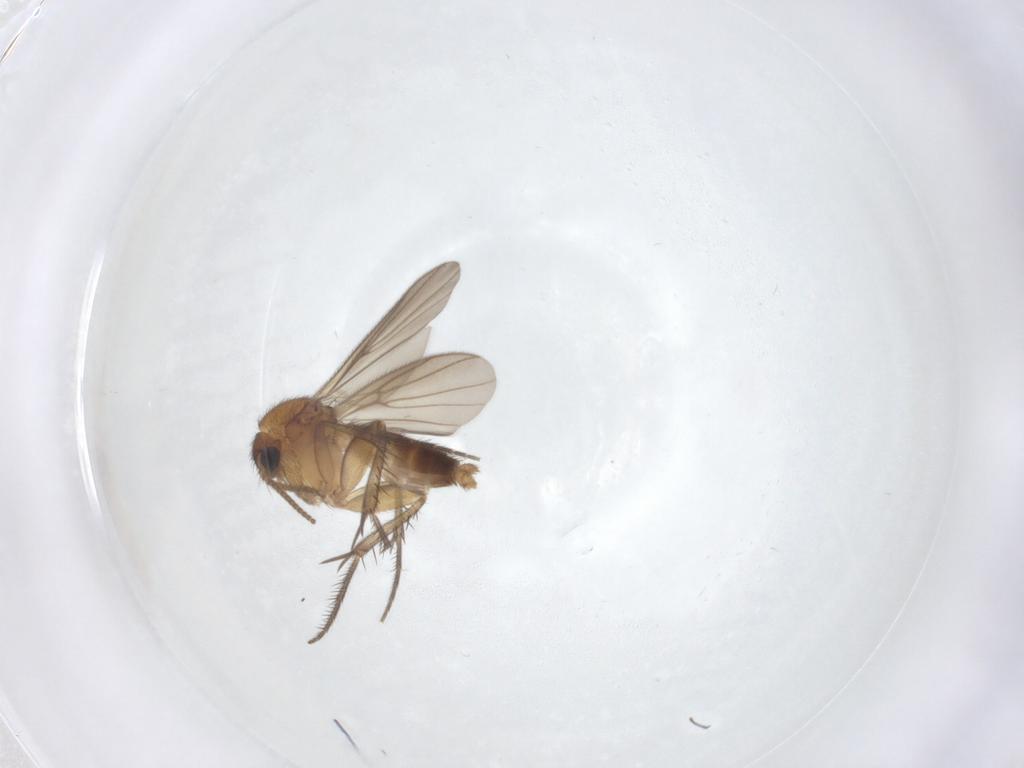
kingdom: Animalia
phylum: Arthropoda
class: Insecta
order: Diptera
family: Mycetophilidae
